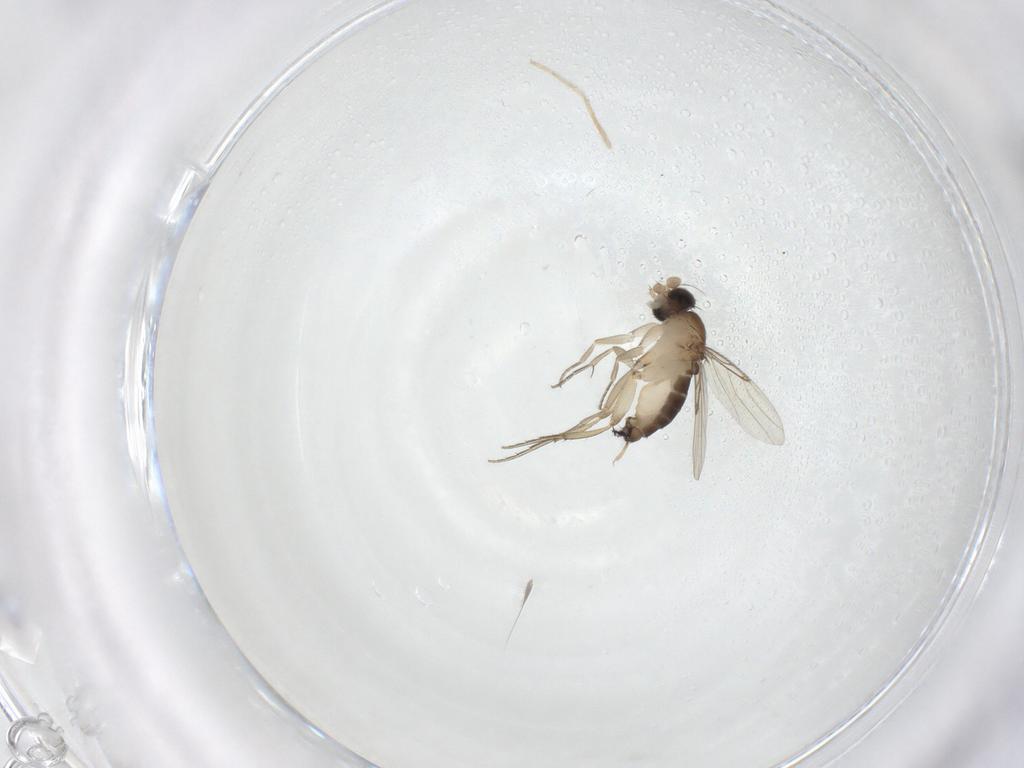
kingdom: Animalia
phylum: Arthropoda
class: Insecta
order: Diptera
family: Phoridae
